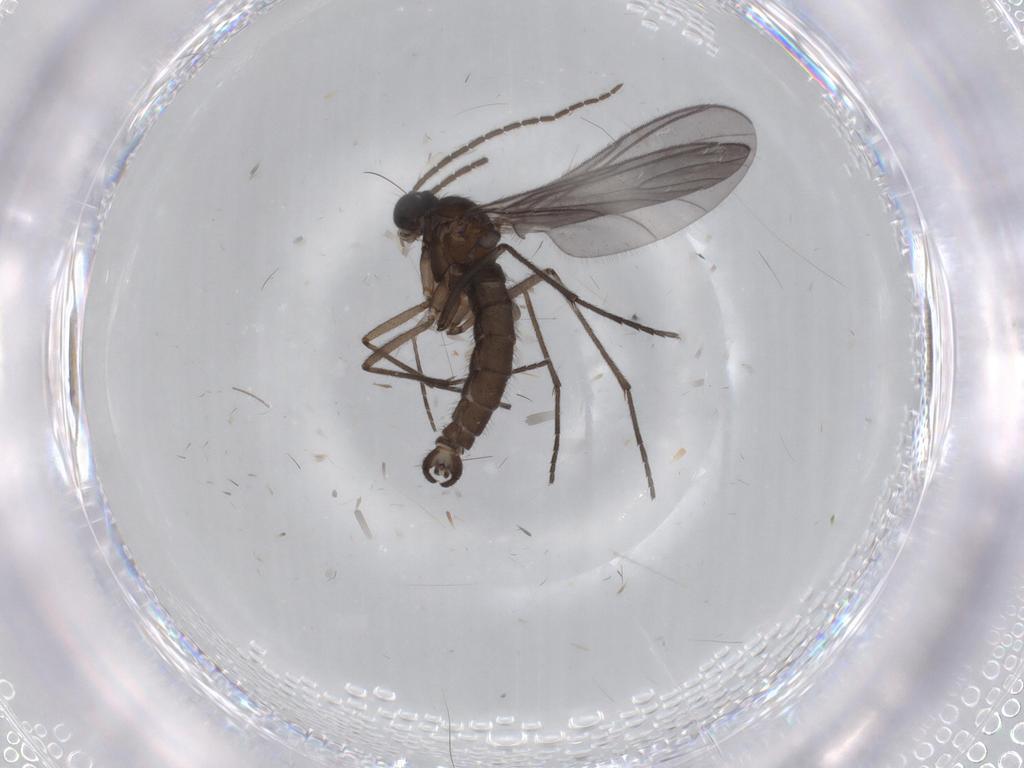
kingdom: Animalia
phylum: Arthropoda
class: Insecta
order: Diptera
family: Sciaridae
